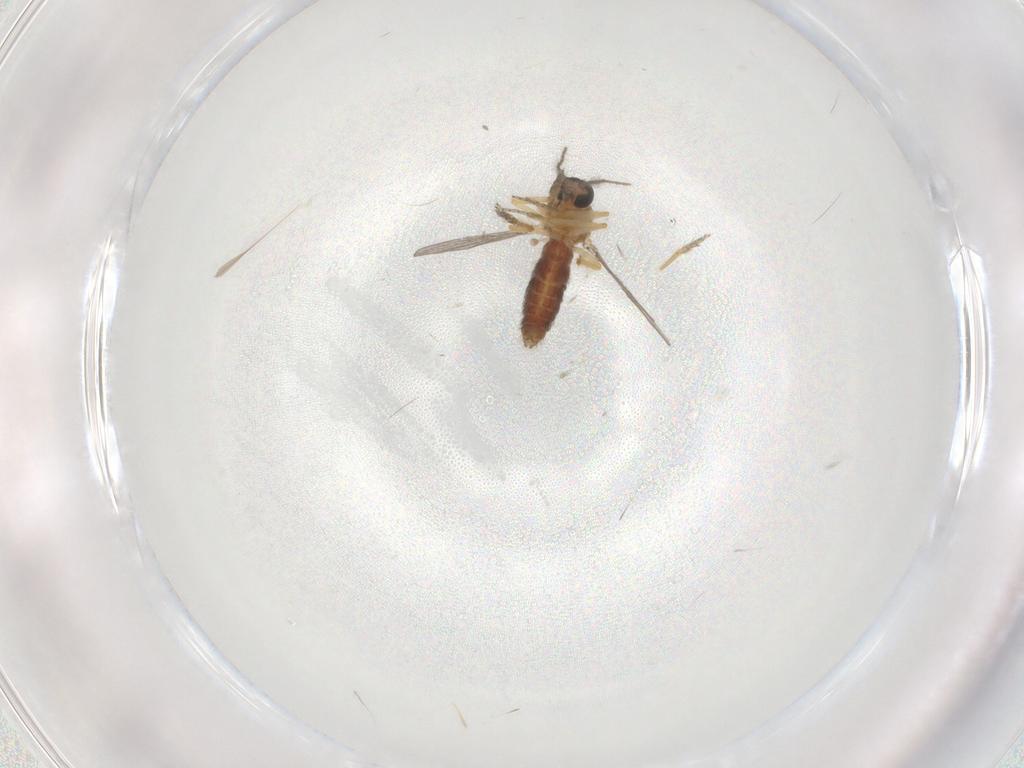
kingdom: Animalia
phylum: Arthropoda
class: Insecta
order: Diptera
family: Ceratopogonidae
